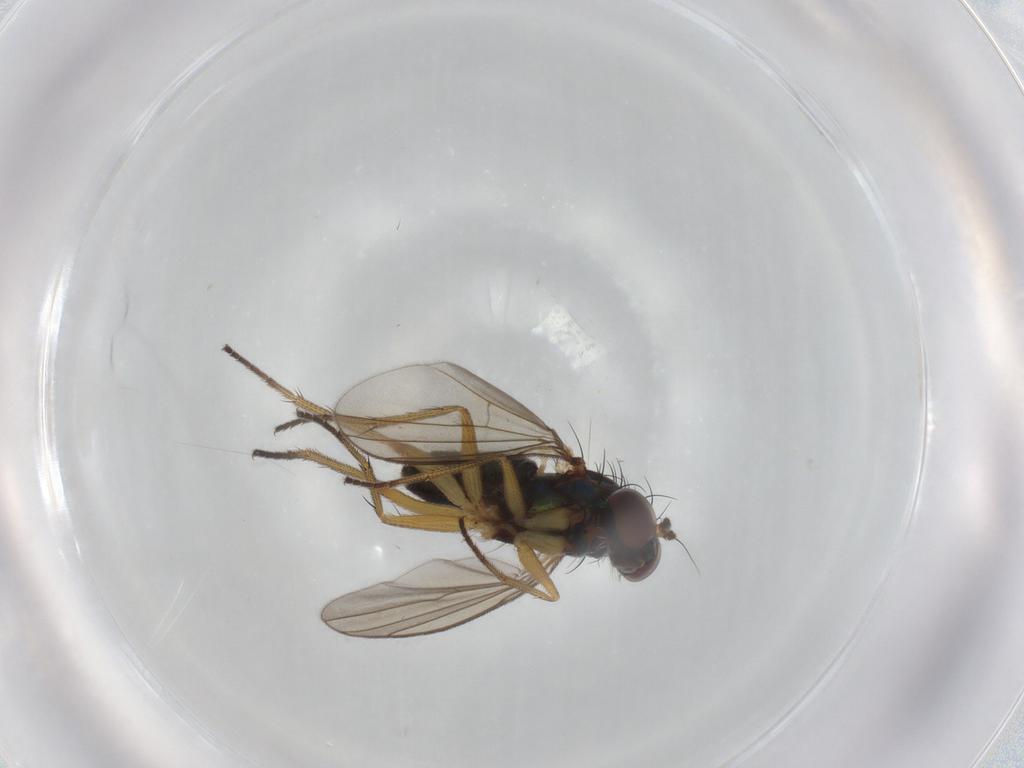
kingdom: Animalia
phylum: Arthropoda
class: Insecta
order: Diptera
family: Dolichopodidae
